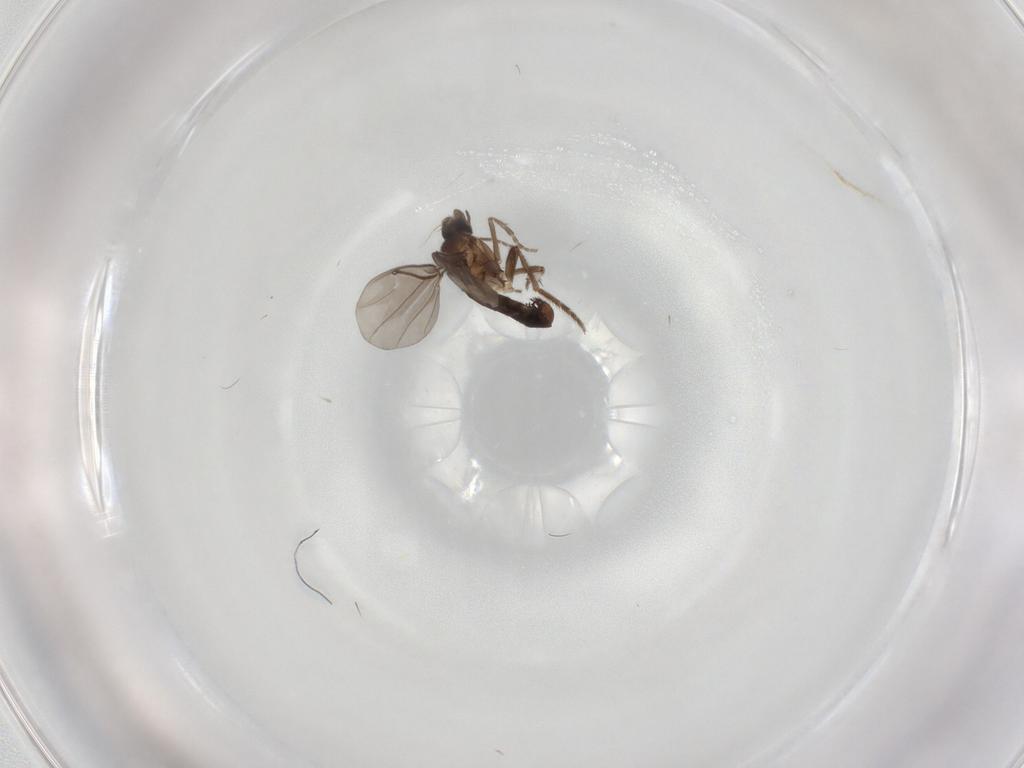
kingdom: Animalia
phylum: Arthropoda
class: Insecta
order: Diptera
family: Phoridae
